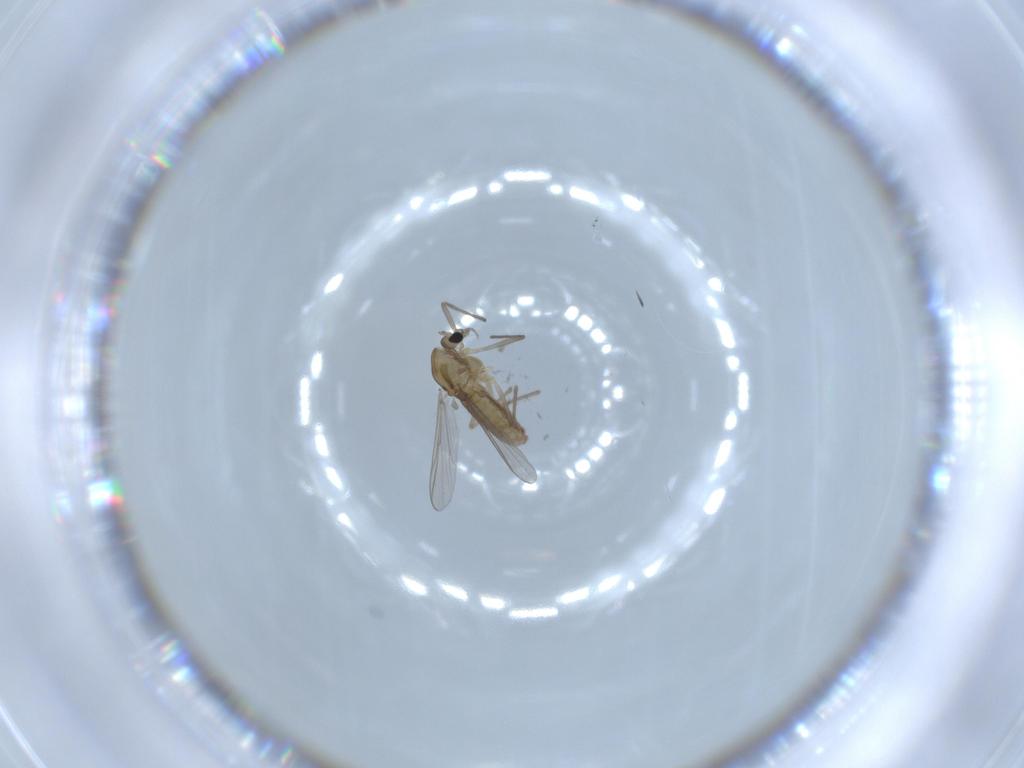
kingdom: Animalia
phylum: Arthropoda
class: Insecta
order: Diptera
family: Chironomidae
